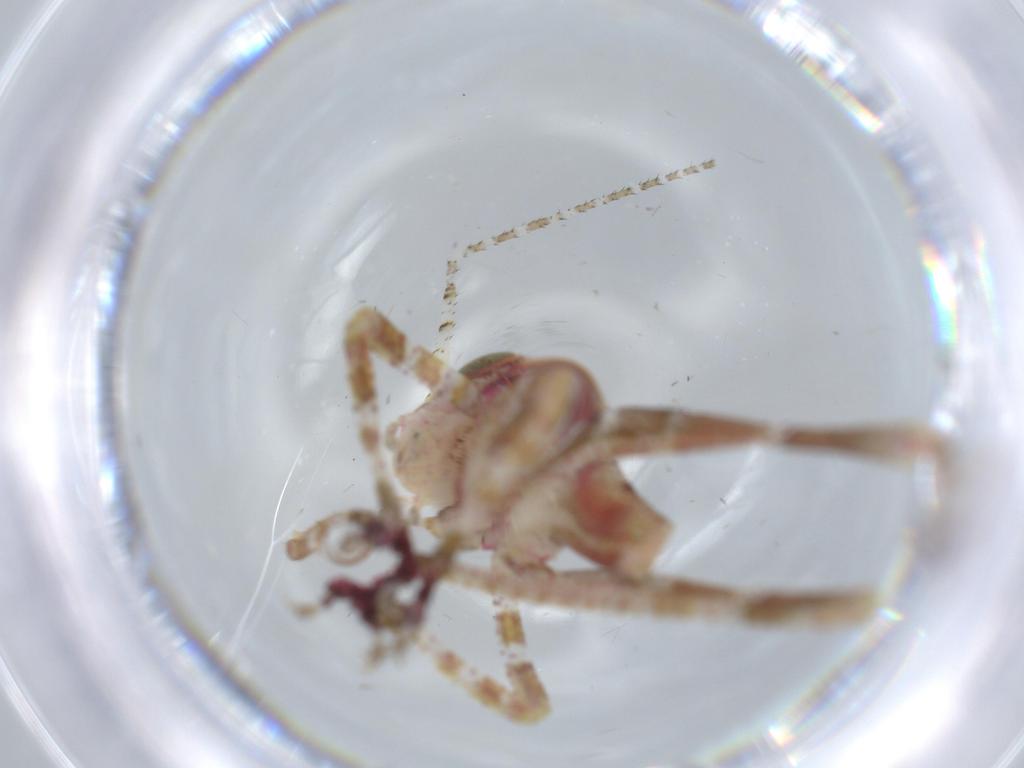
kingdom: Animalia
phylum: Arthropoda
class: Insecta
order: Orthoptera
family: Tettigoniidae
